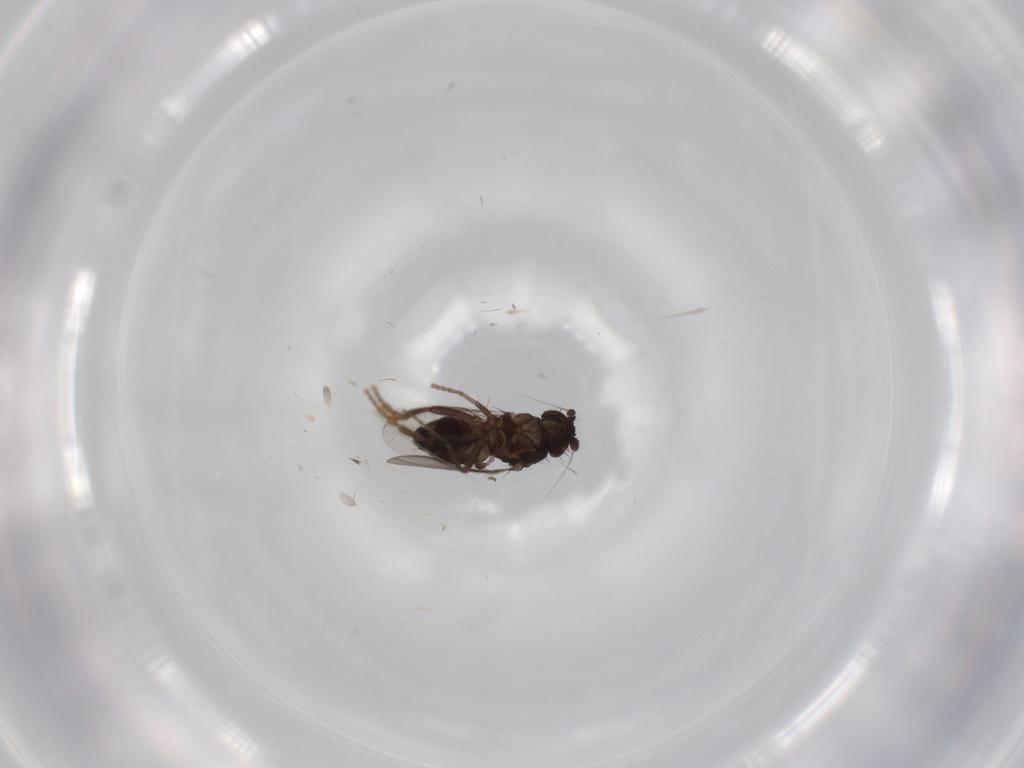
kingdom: Animalia
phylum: Arthropoda
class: Insecta
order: Diptera
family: Sphaeroceridae
